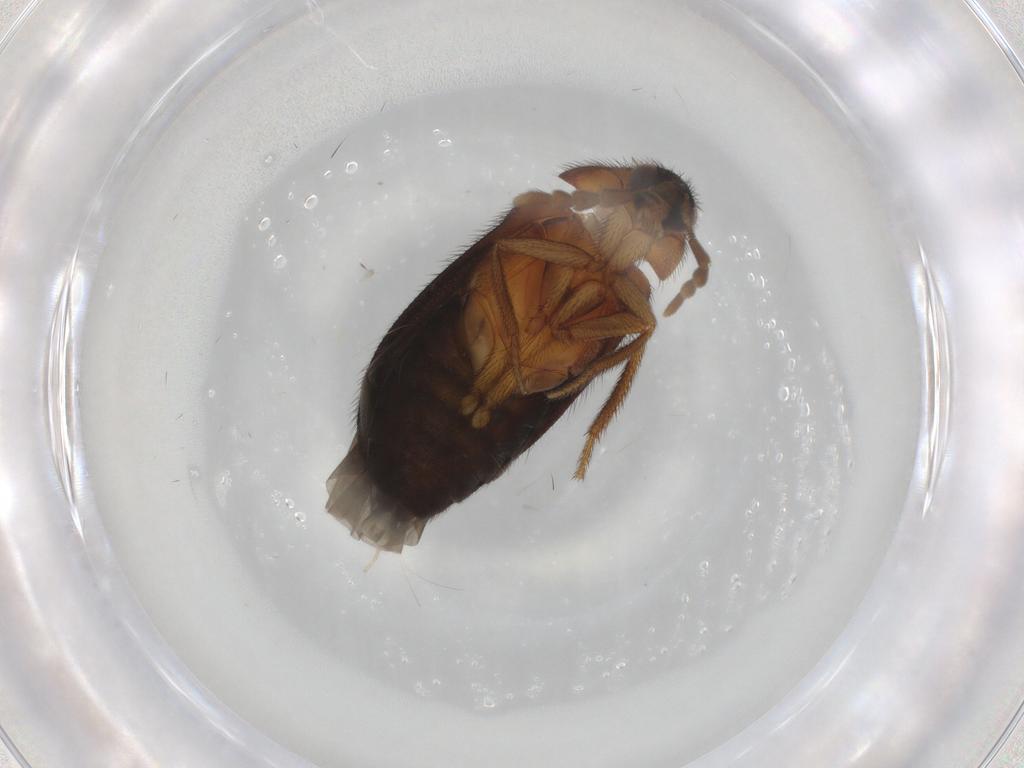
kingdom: Animalia
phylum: Arthropoda
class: Insecta
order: Coleoptera
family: Dermestidae
